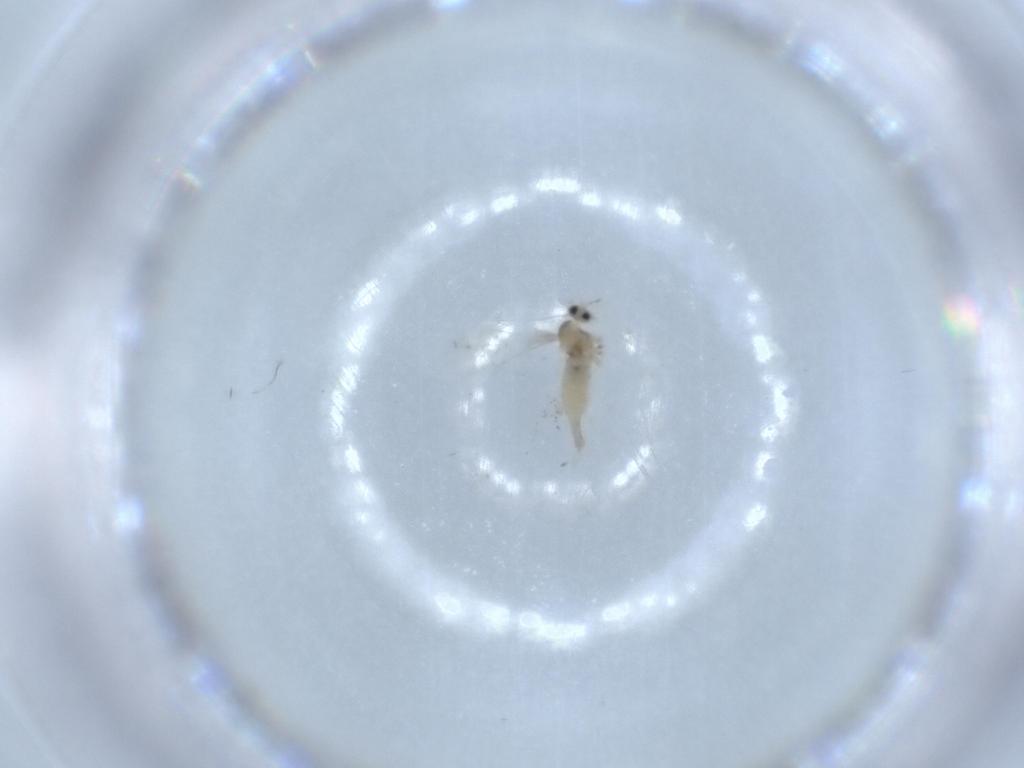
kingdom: Animalia
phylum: Arthropoda
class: Insecta
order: Diptera
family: Cecidomyiidae
